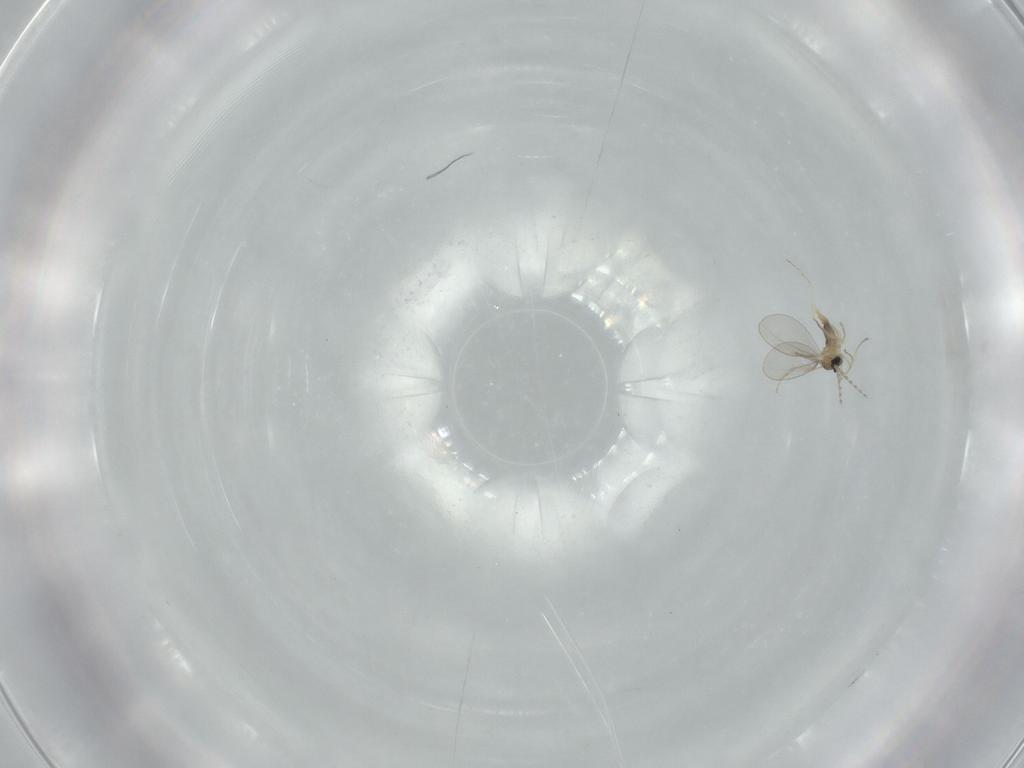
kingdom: Animalia
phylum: Arthropoda
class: Insecta
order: Diptera
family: Cecidomyiidae
